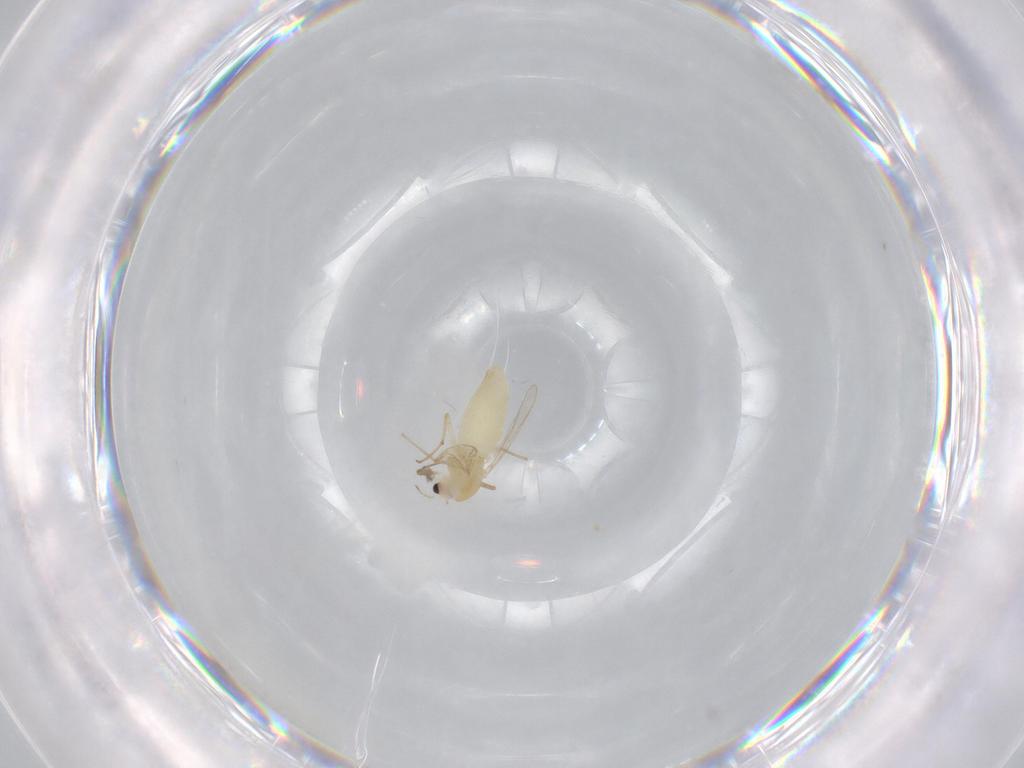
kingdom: Animalia
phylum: Arthropoda
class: Insecta
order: Diptera
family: Chironomidae
